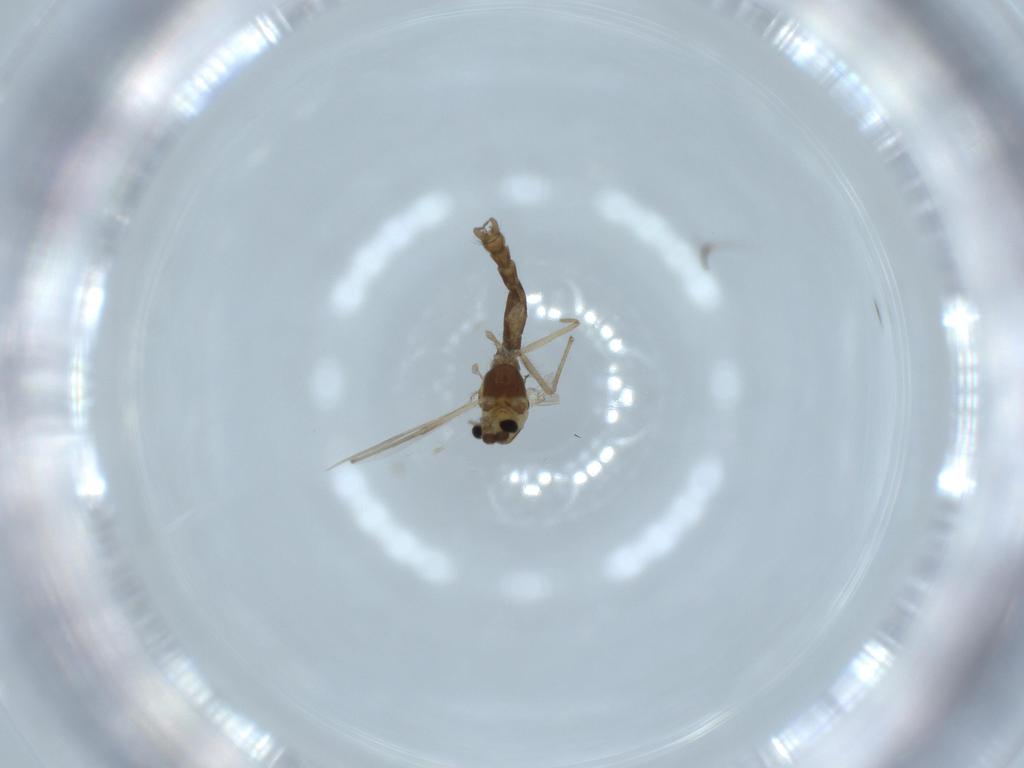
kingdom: Animalia
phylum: Arthropoda
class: Insecta
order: Diptera
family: Chironomidae
